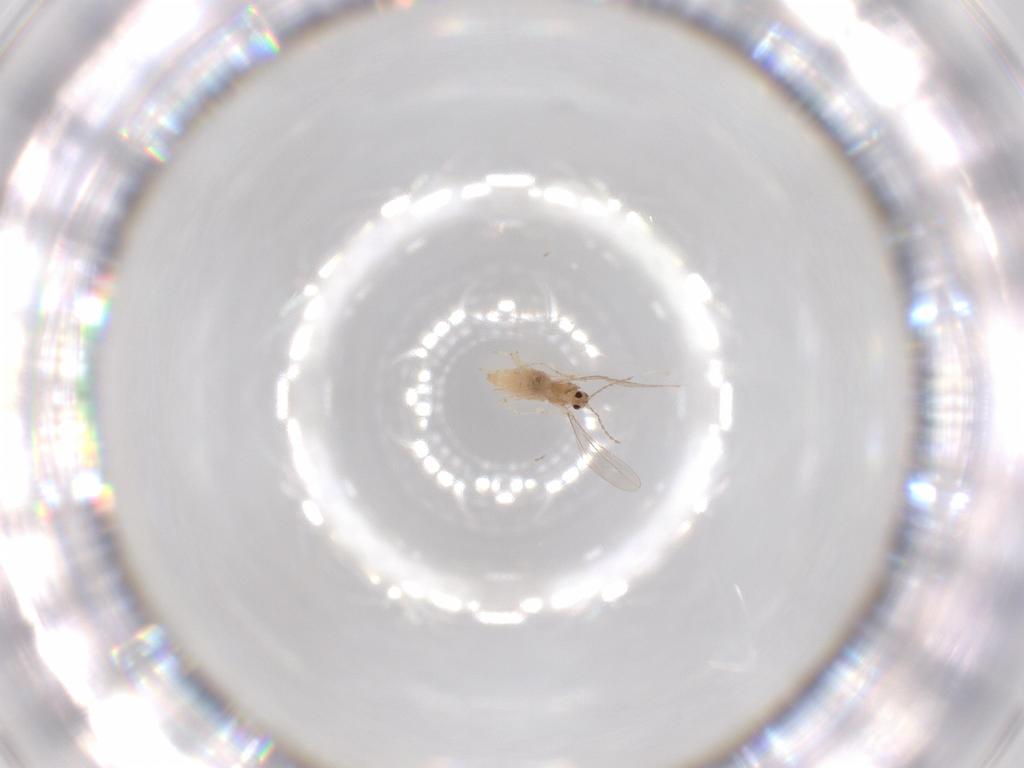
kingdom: Animalia
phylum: Arthropoda
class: Insecta
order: Diptera
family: Cecidomyiidae
